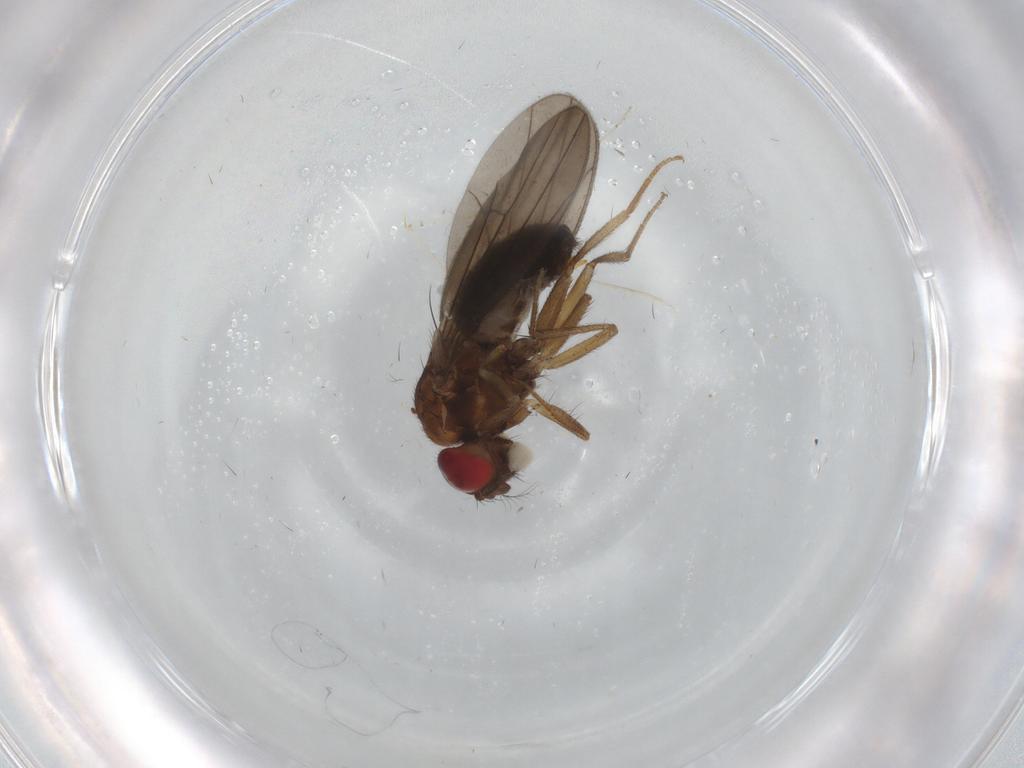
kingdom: Animalia
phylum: Arthropoda
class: Insecta
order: Diptera
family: Drosophilidae
